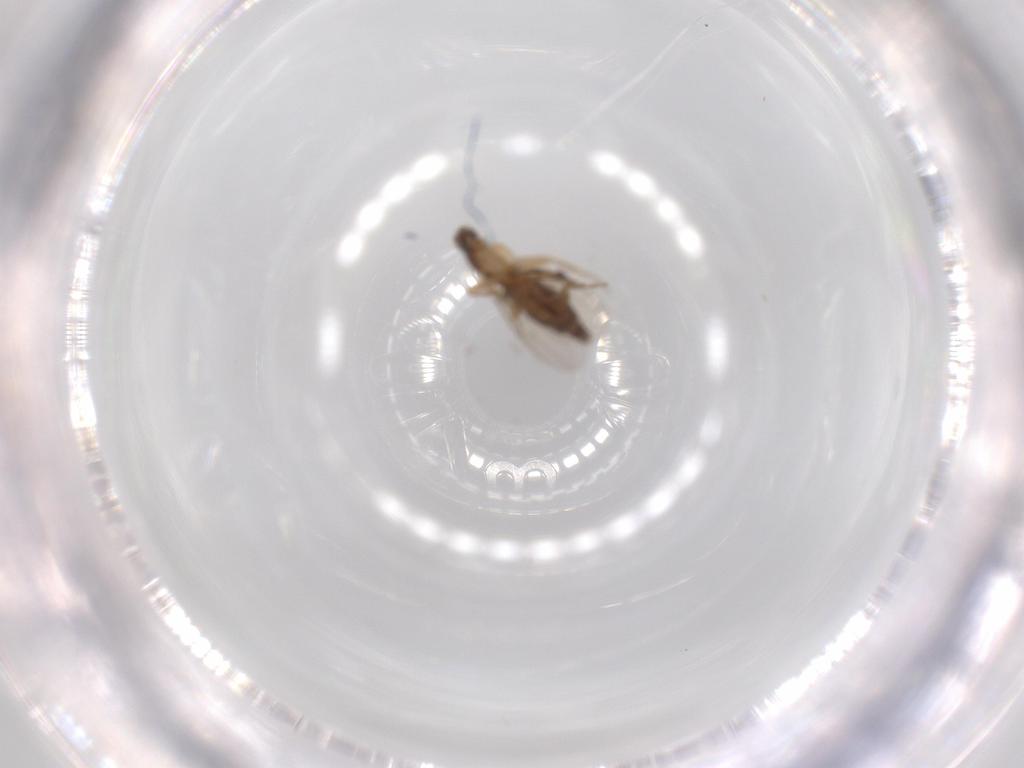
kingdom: Animalia
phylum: Arthropoda
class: Insecta
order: Diptera
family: Phoridae
